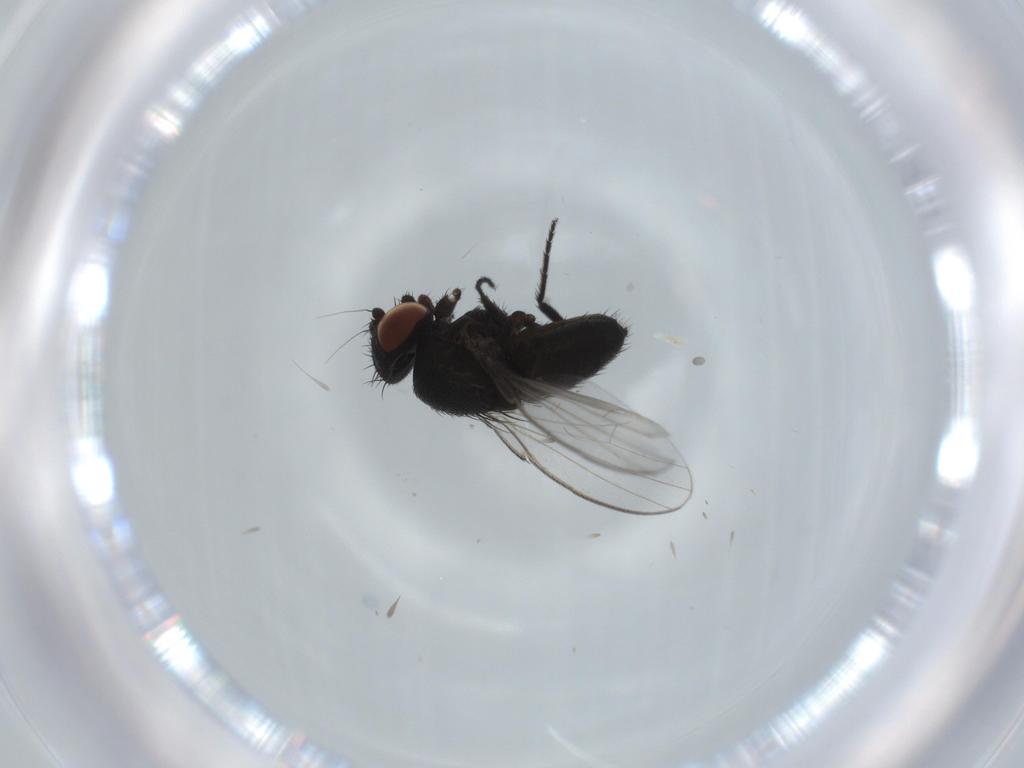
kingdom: Animalia
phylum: Arthropoda
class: Insecta
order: Diptera
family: Milichiidae
